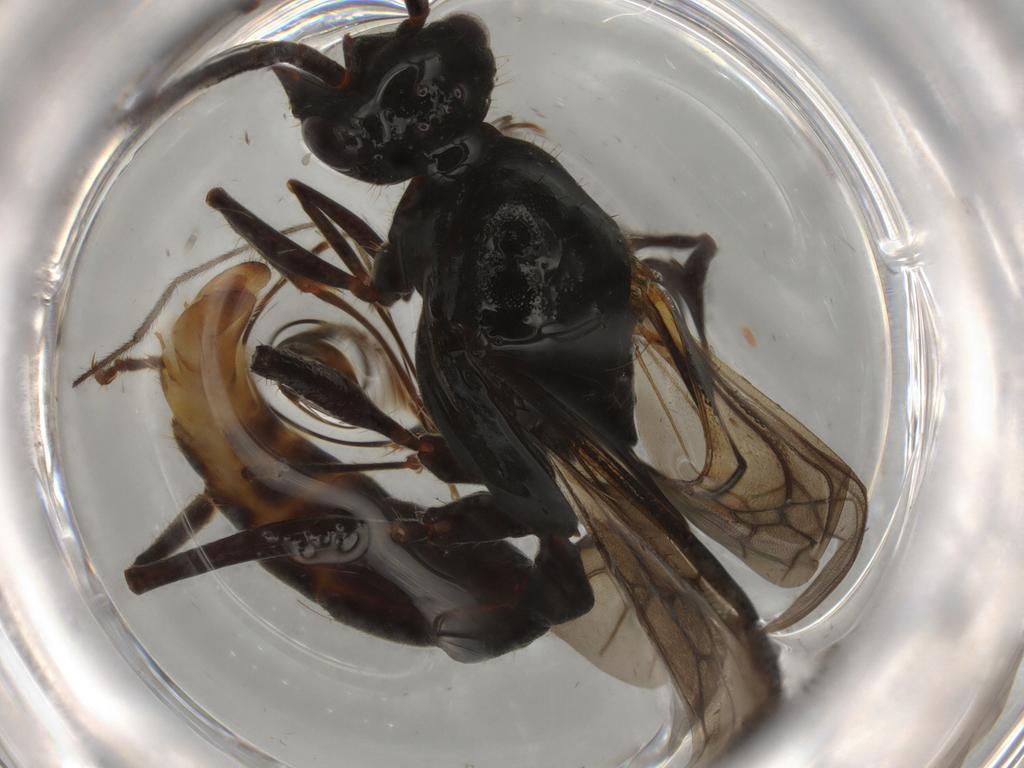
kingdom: Animalia
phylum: Arthropoda
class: Insecta
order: Hymenoptera
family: Formicidae
